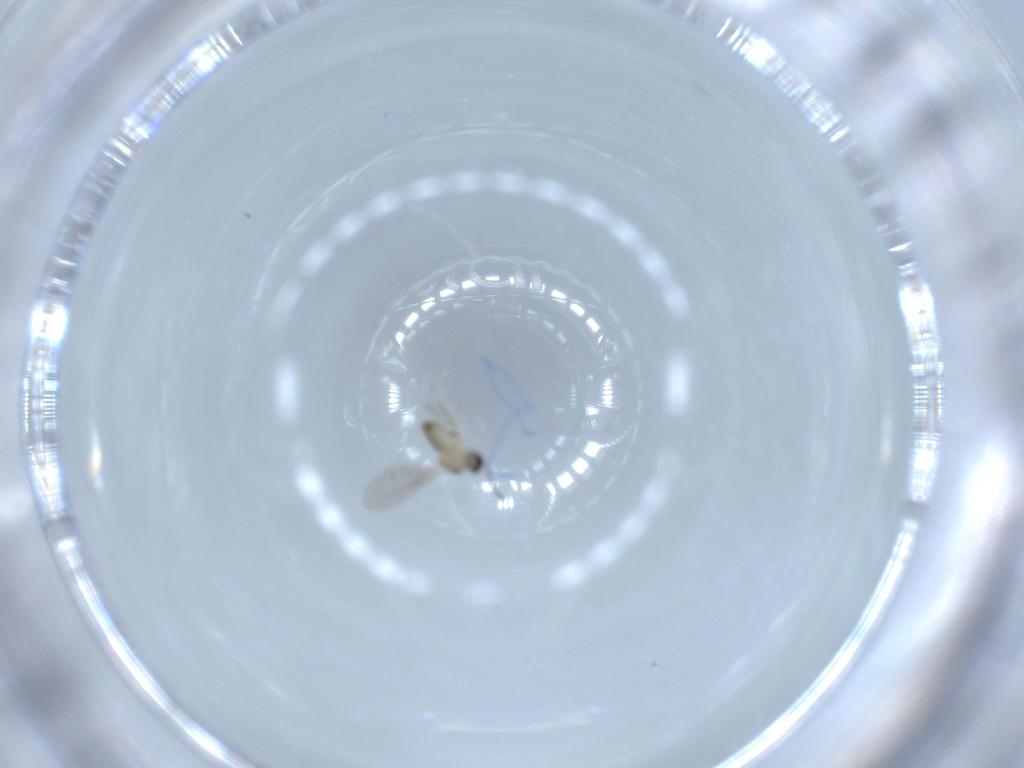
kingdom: Animalia
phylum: Arthropoda
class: Insecta
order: Diptera
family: Cecidomyiidae
